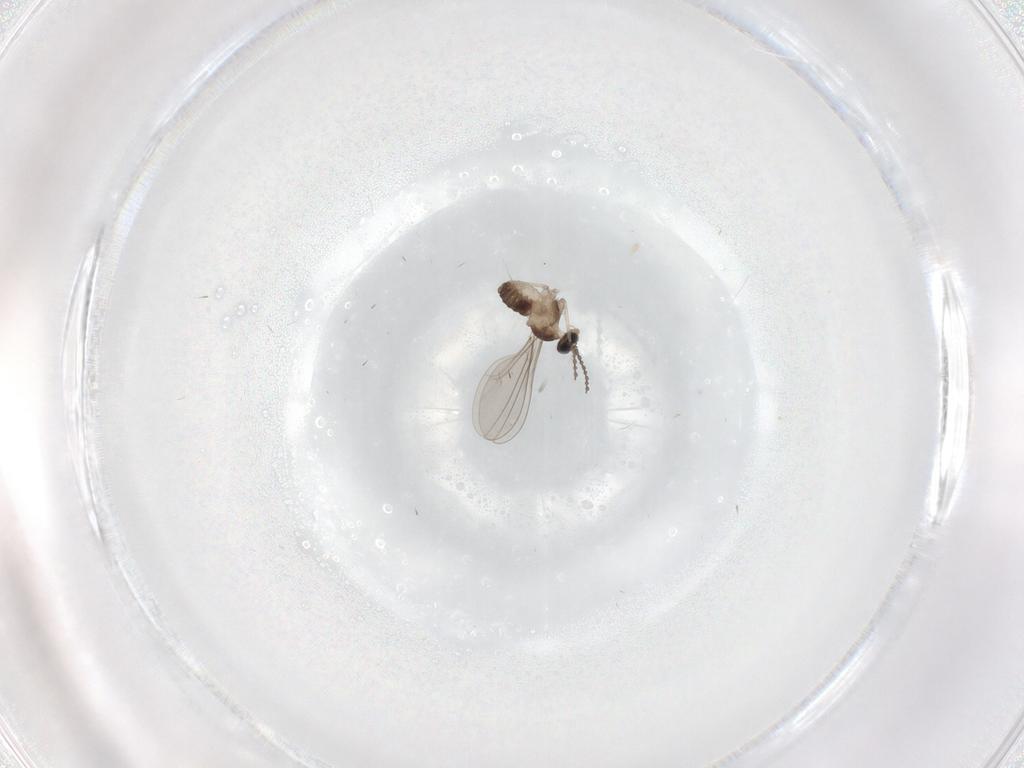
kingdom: Animalia
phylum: Arthropoda
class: Insecta
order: Diptera
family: Cecidomyiidae
